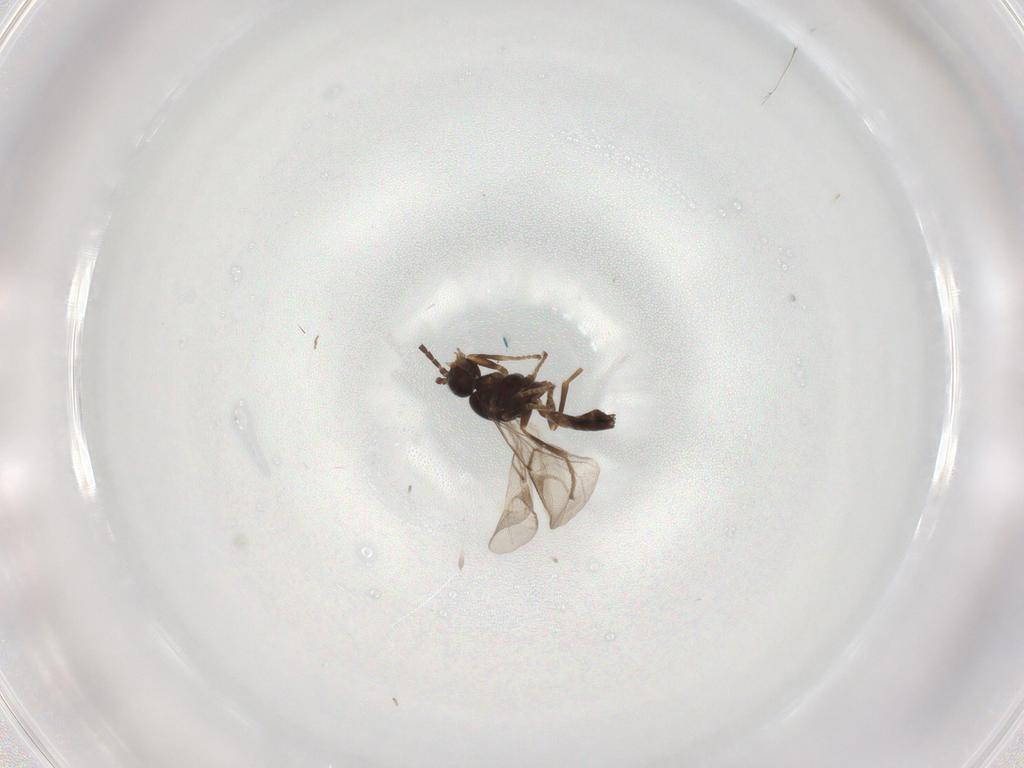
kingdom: Animalia
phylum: Arthropoda
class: Insecta
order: Hymenoptera
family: Braconidae
